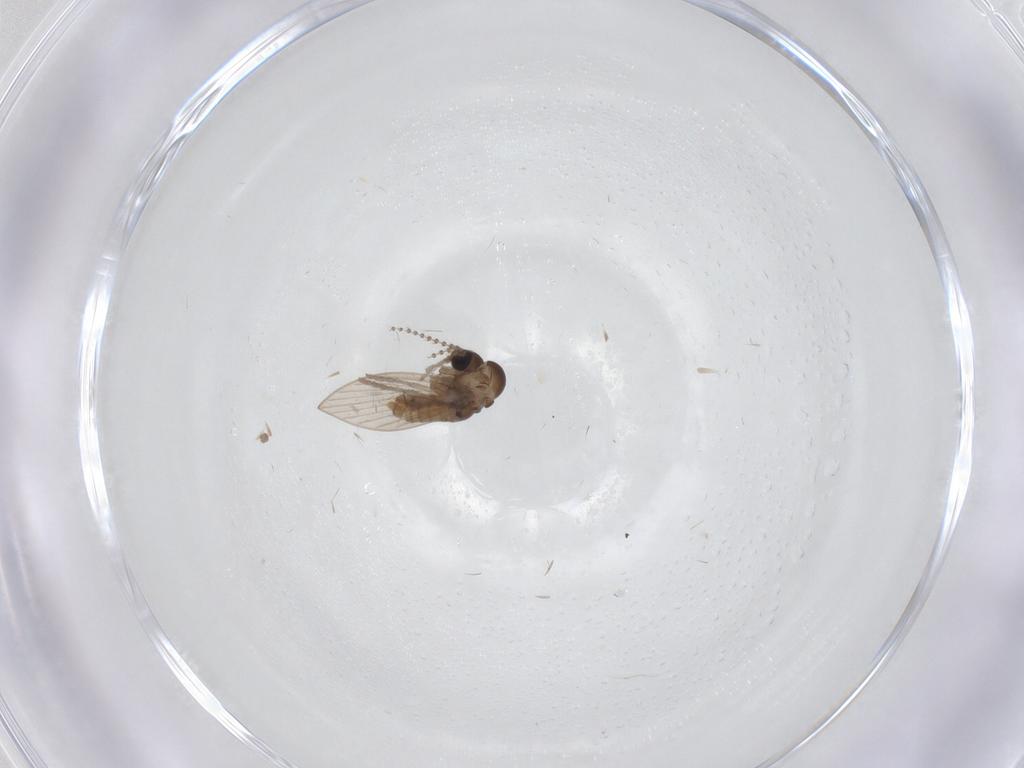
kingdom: Animalia
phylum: Arthropoda
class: Insecta
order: Diptera
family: Psychodidae
